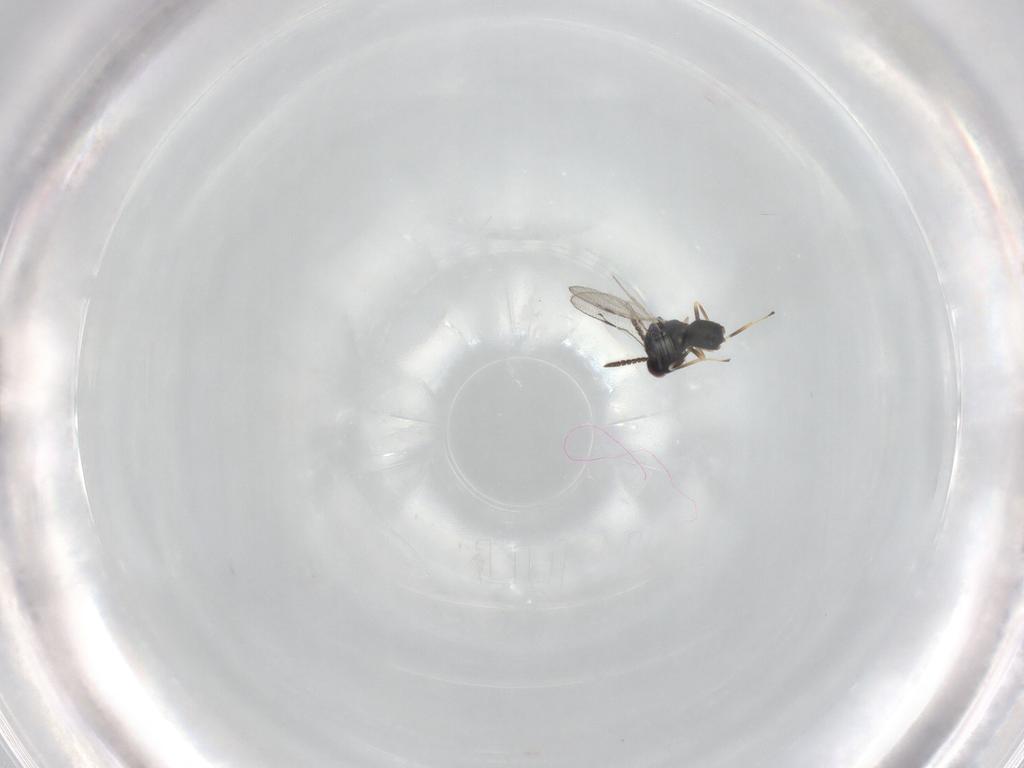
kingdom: Animalia
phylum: Arthropoda
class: Insecta
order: Hymenoptera
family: Pteromalidae
